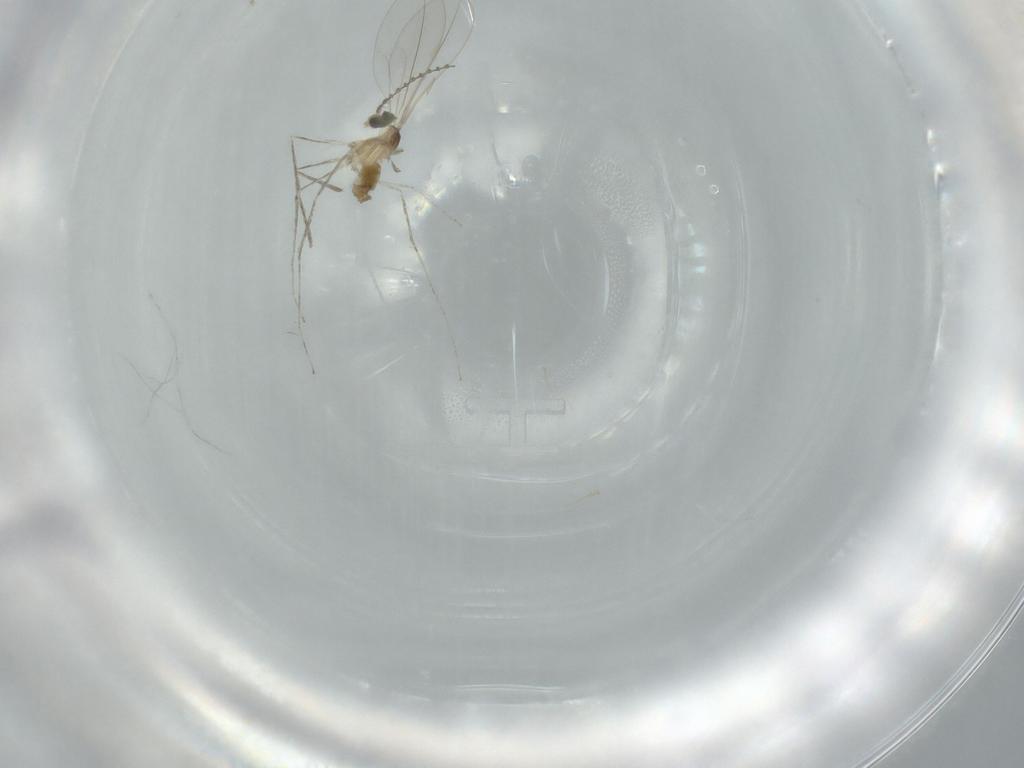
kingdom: Animalia
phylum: Arthropoda
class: Insecta
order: Diptera
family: Cecidomyiidae
